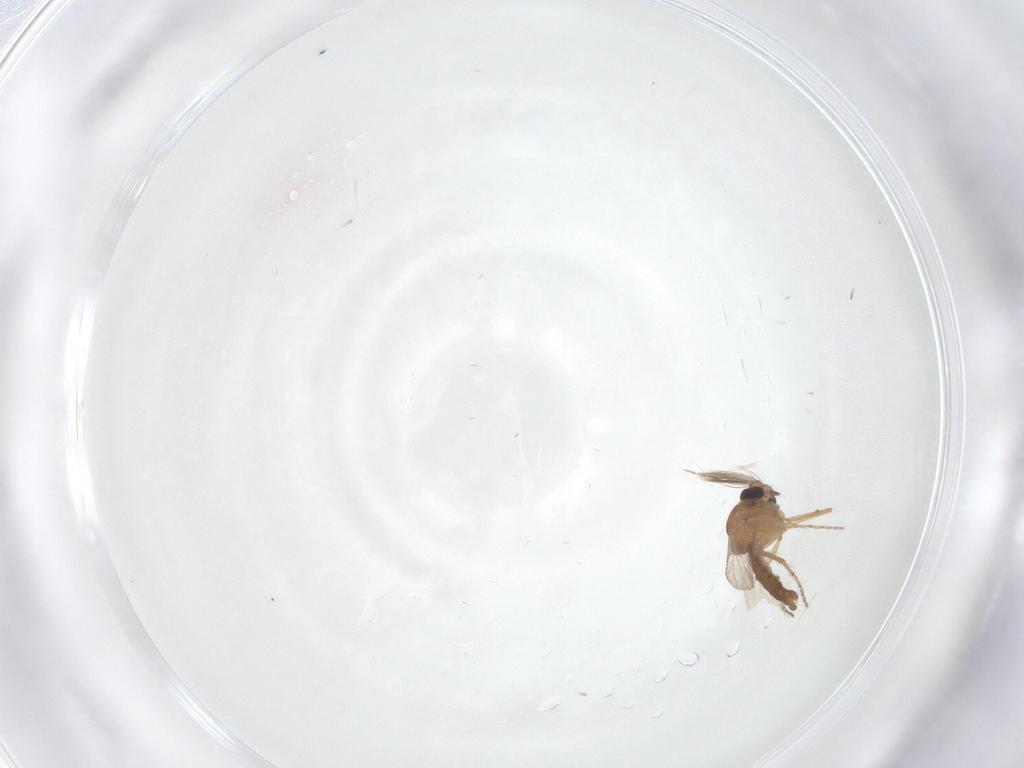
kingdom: Animalia
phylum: Arthropoda
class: Insecta
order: Diptera
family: Ceratopogonidae
